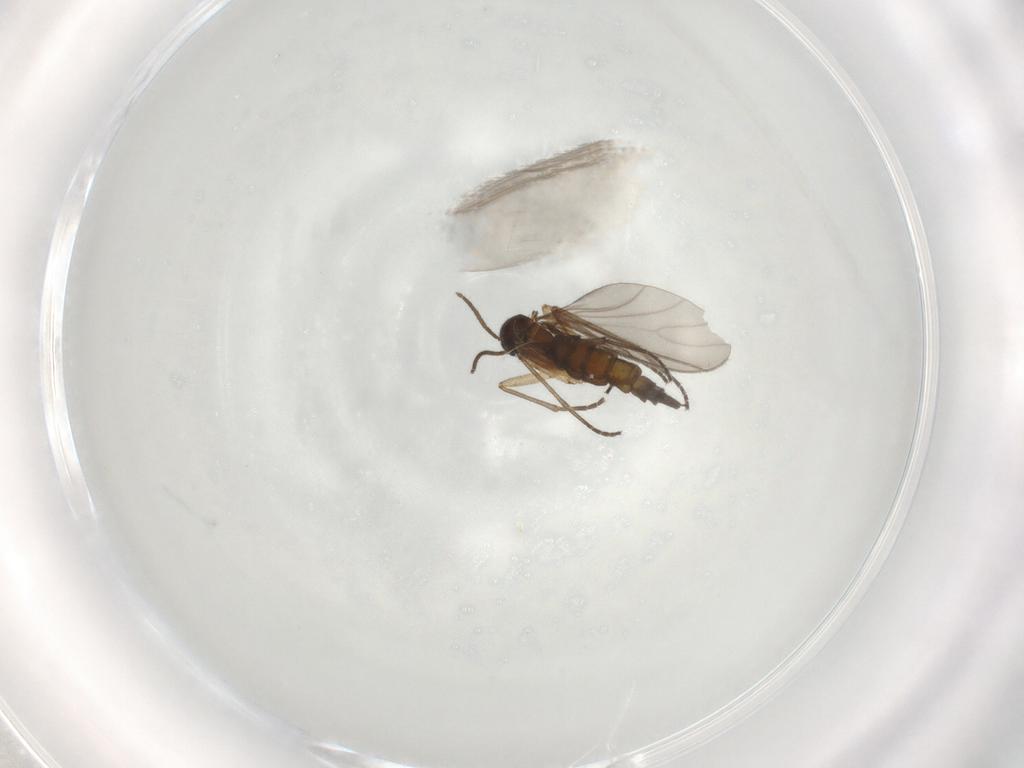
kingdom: Animalia
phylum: Arthropoda
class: Insecta
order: Diptera
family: Sciaridae
